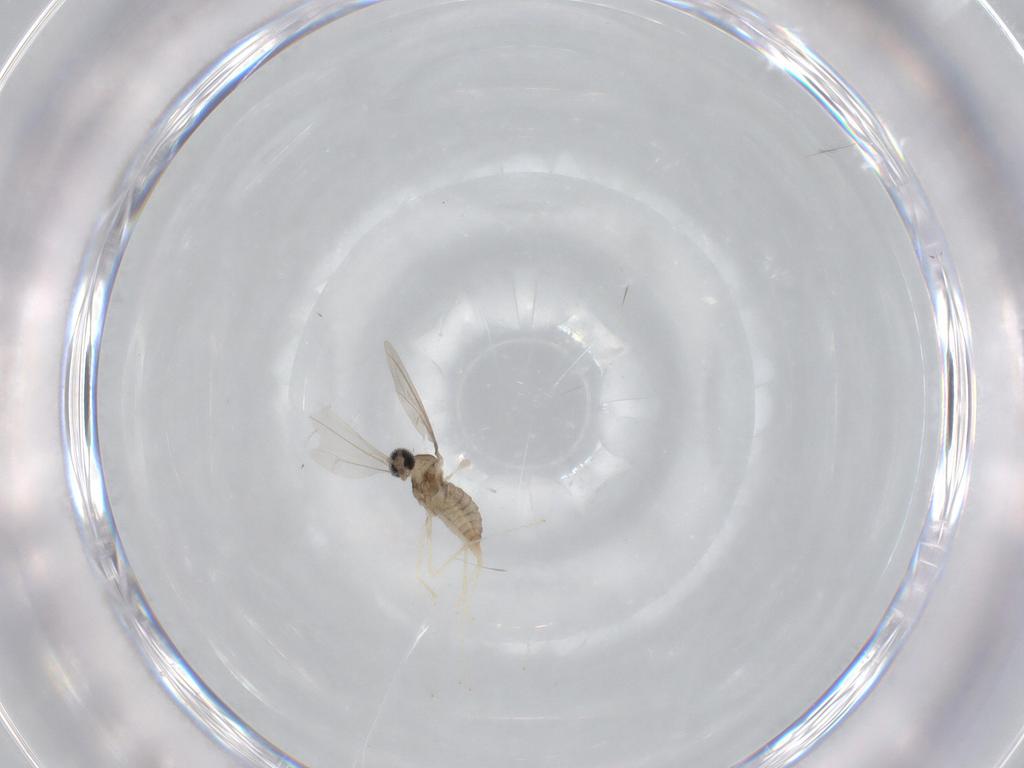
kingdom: Animalia
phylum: Arthropoda
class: Insecta
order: Diptera
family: Cecidomyiidae
